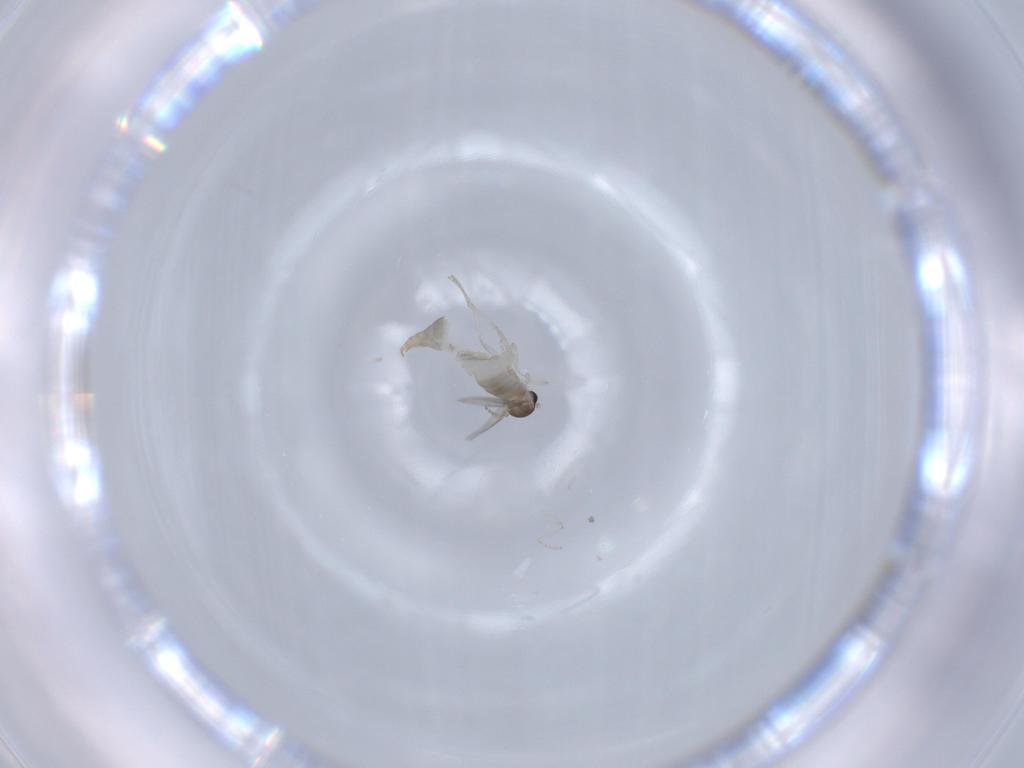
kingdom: Animalia
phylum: Arthropoda
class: Insecta
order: Diptera
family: Cecidomyiidae
